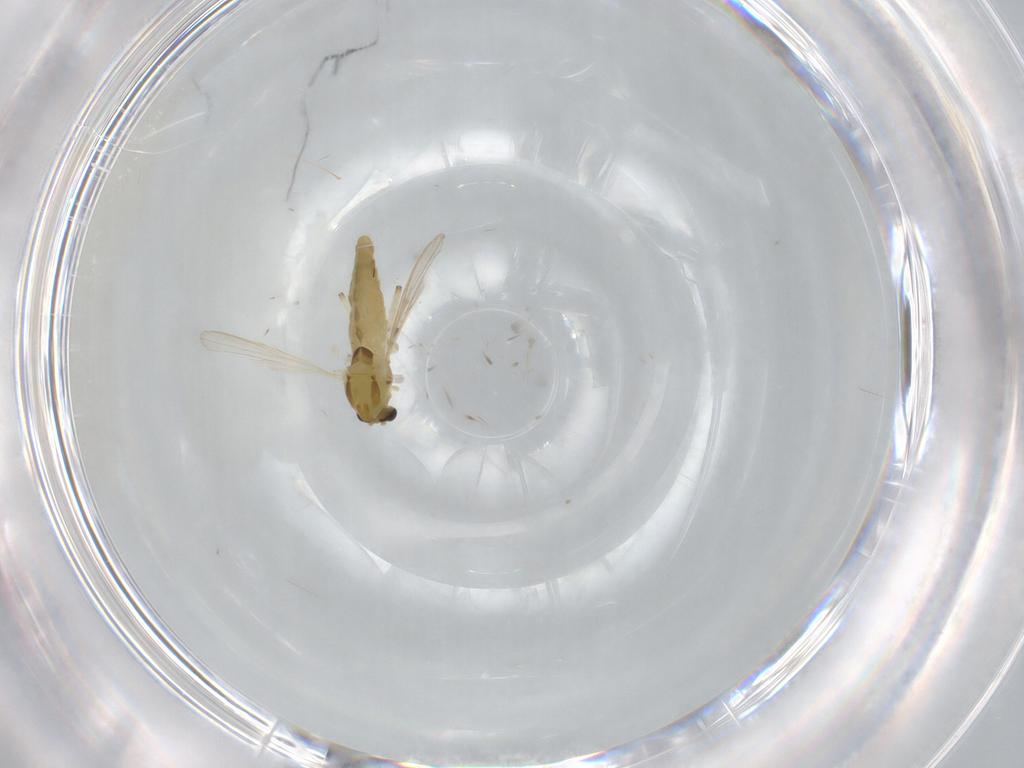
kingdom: Animalia
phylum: Arthropoda
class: Insecta
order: Diptera
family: Chironomidae
